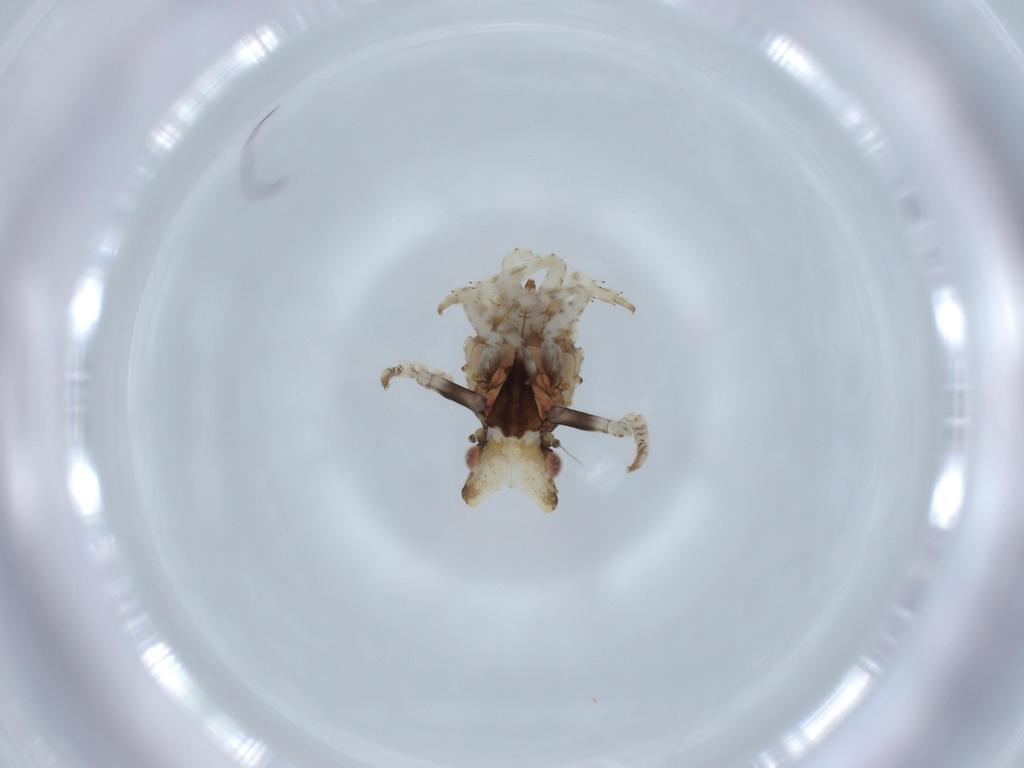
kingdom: Animalia
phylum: Arthropoda
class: Insecta
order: Hemiptera
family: Fulgoridae
